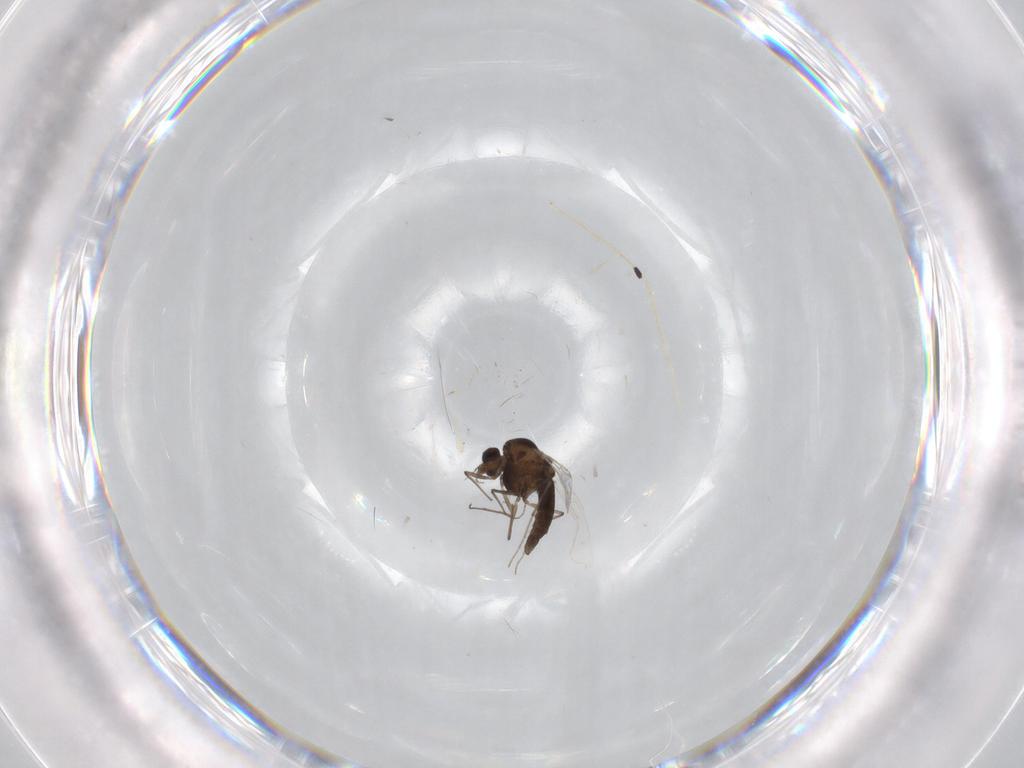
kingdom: Animalia
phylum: Arthropoda
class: Insecta
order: Diptera
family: Chironomidae
